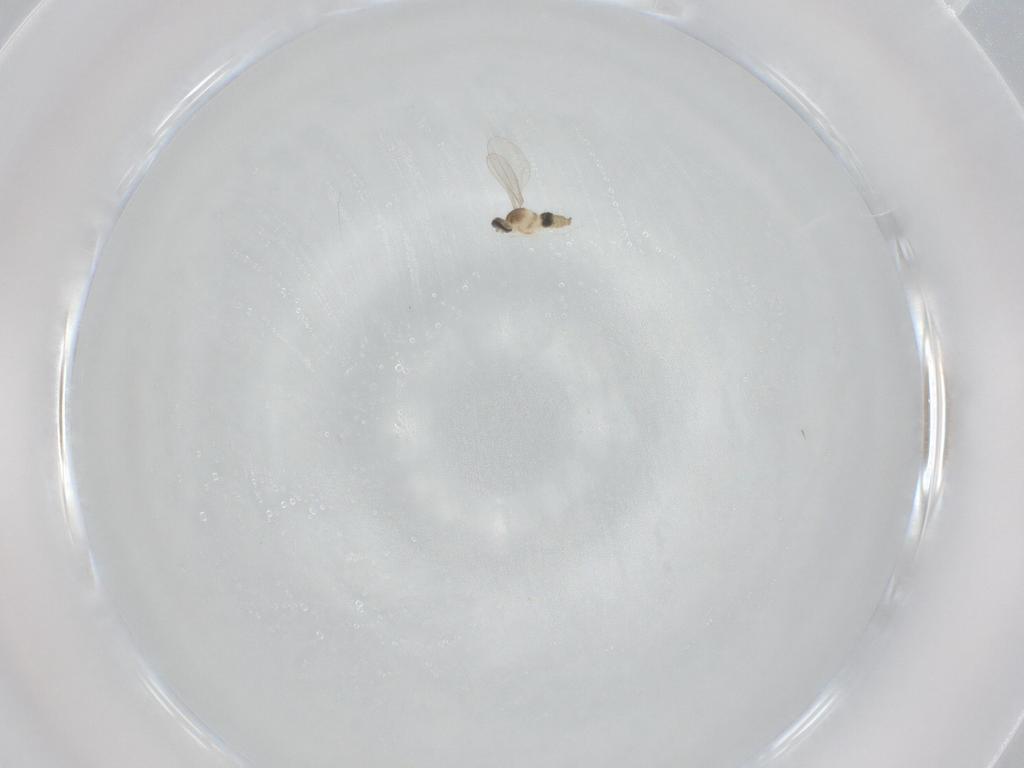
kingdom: Animalia
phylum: Arthropoda
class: Insecta
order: Diptera
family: Cecidomyiidae
